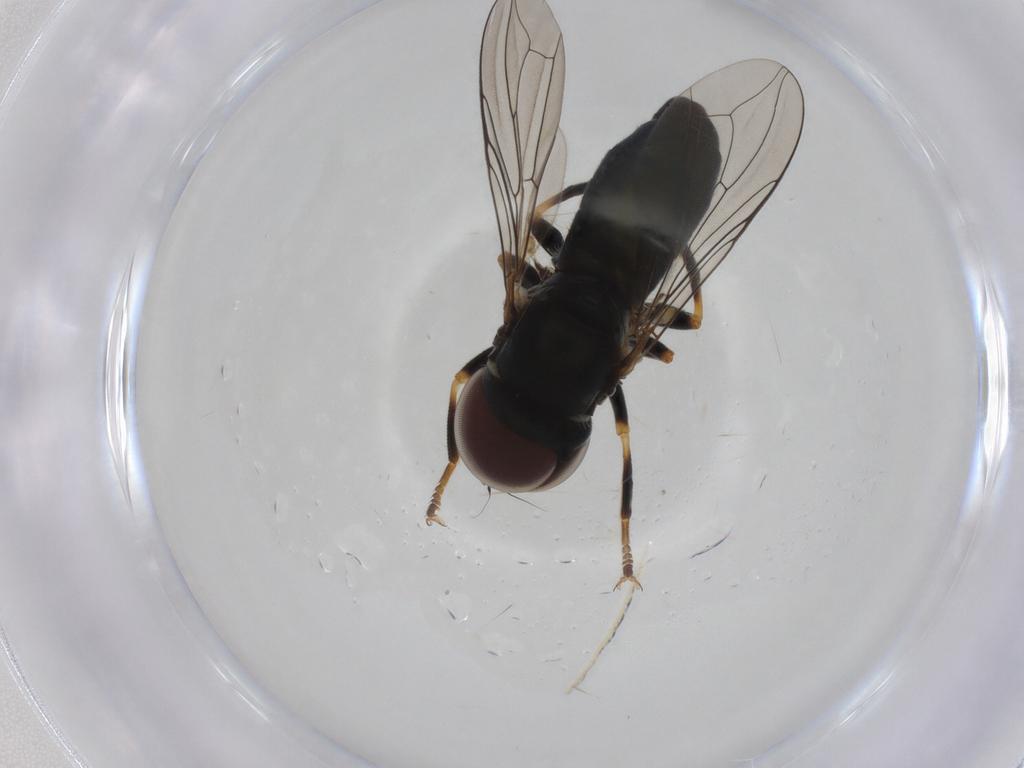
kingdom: Animalia
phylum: Arthropoda
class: Insecta
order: Diptera
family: Pipunculidae
